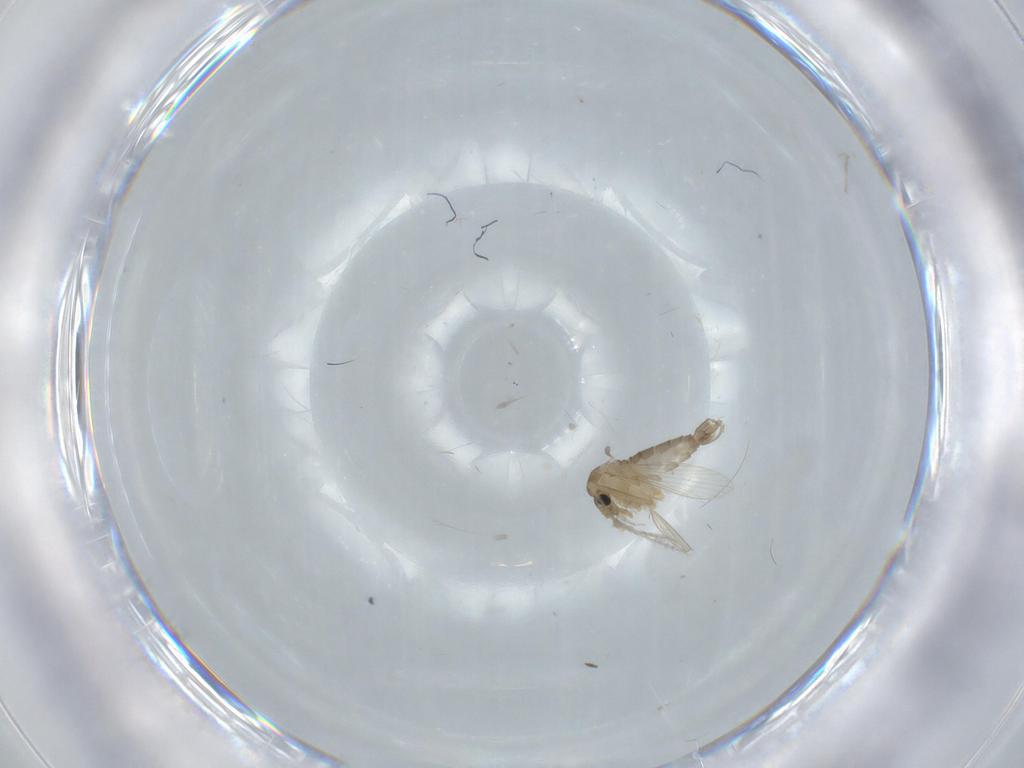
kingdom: Animalia
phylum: Arthropoda
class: Insecta
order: Diptera
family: Psychodidae
